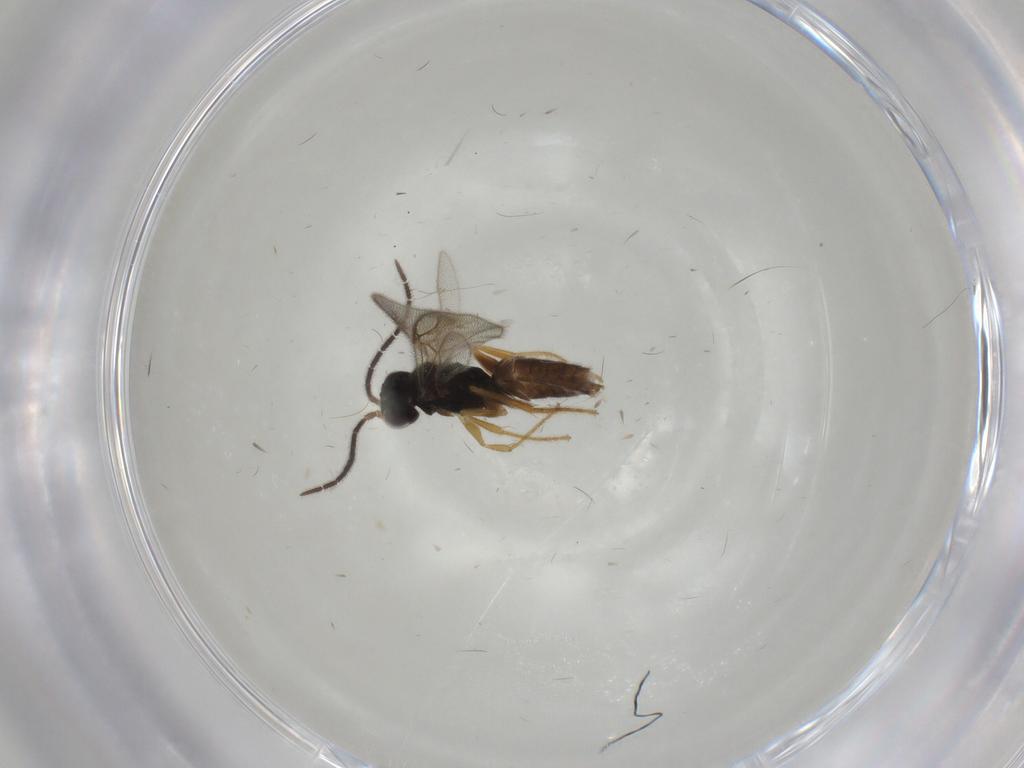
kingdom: Animalia
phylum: Arthropoda
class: Insecta
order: Hymenoptera
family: Dryinidae
